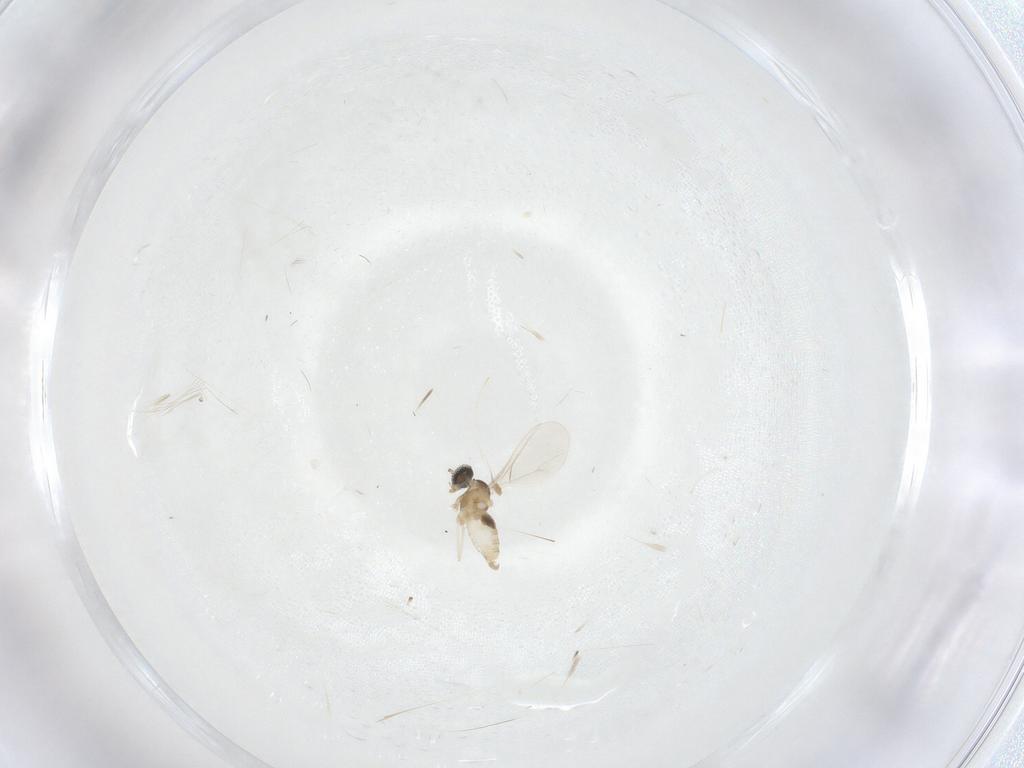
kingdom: Animalia
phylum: Arthropoda
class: Insecta
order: Diptera
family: Cecidomyiidae
